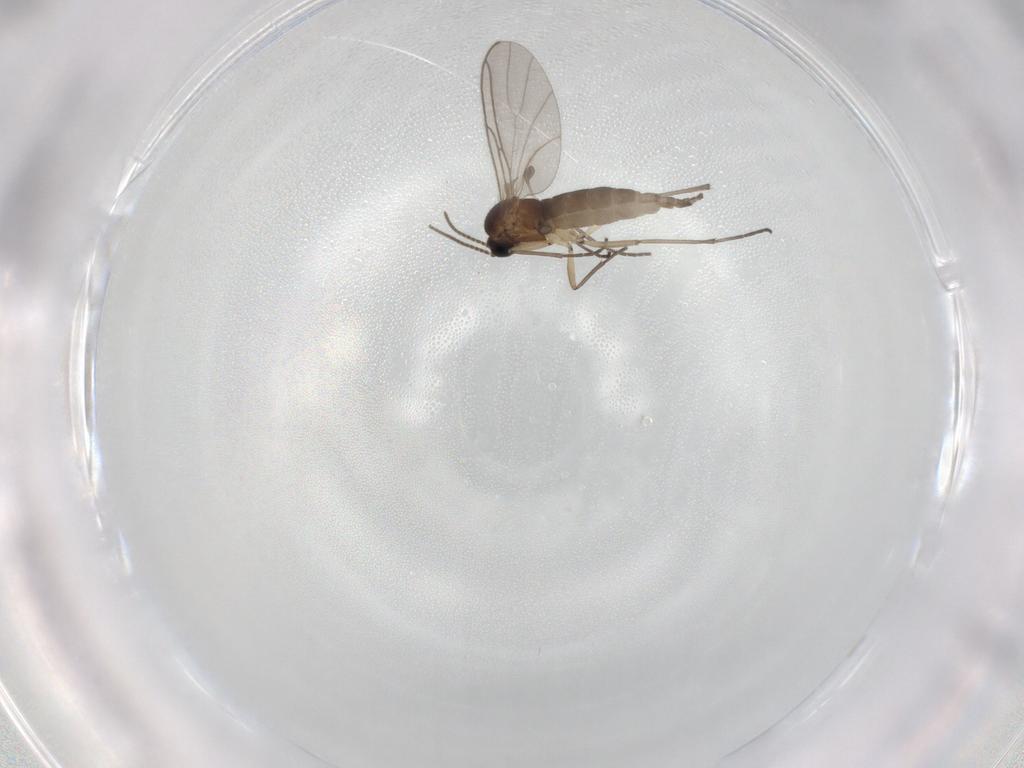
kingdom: Animalia
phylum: Arthropoda
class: Insecta
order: Diptera
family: Sciaridae
